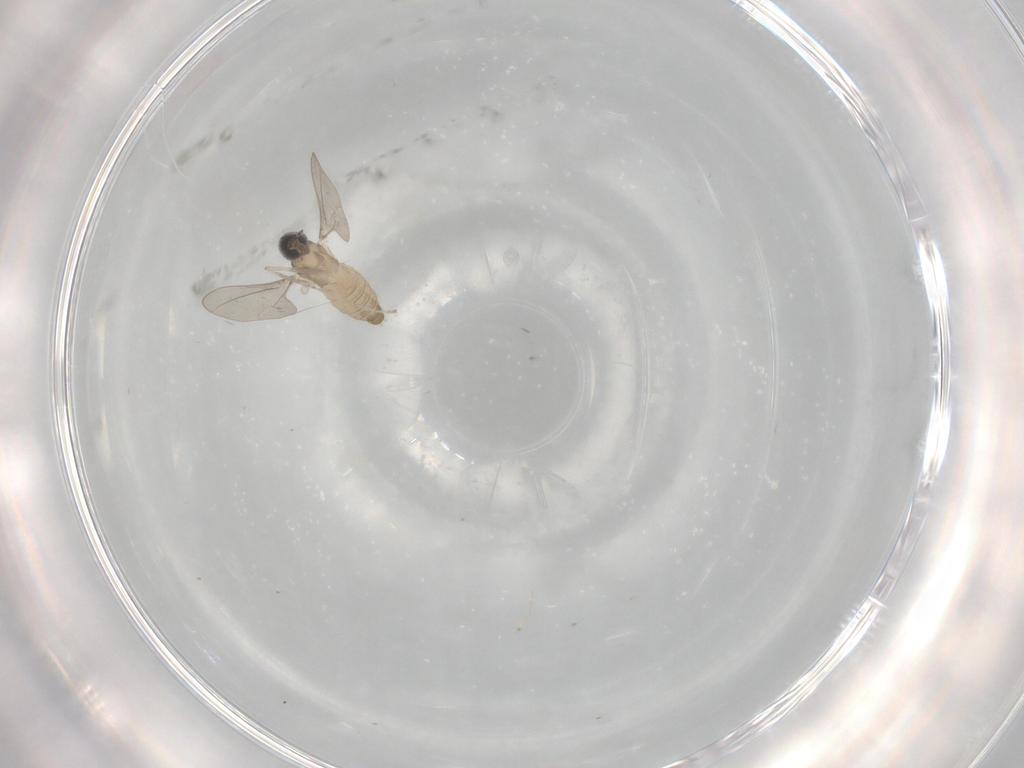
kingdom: Animalia
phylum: Arthropoda
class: Insecta
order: Diptera
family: Cecidomyiidae
